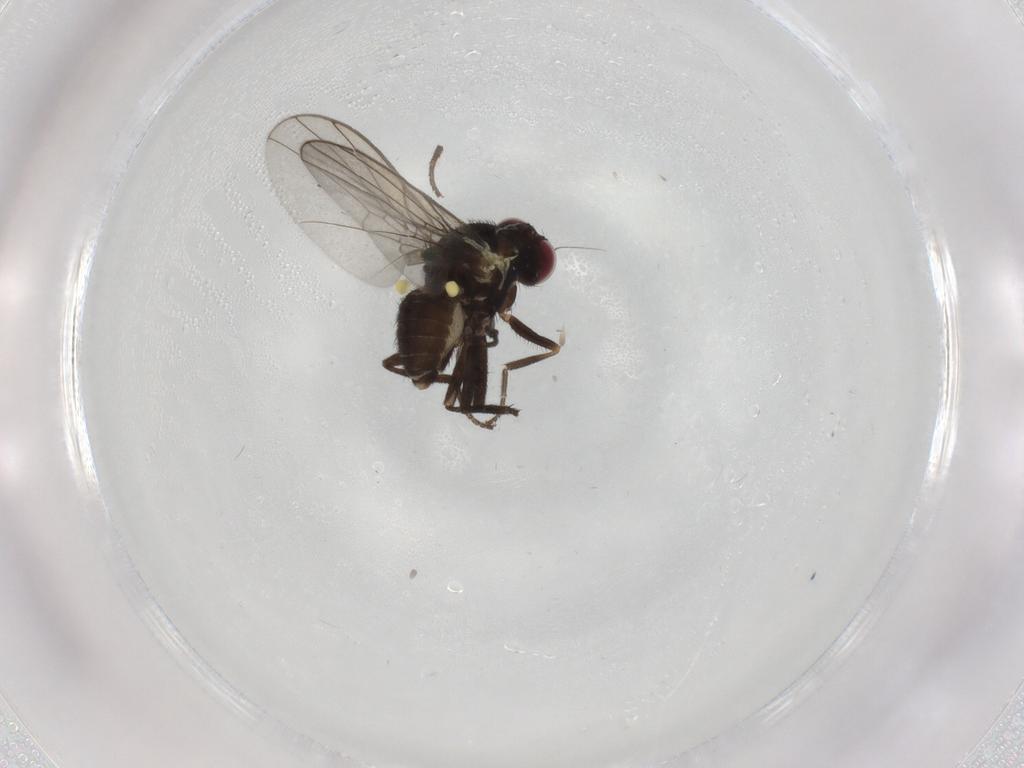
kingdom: Animalia
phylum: Arthropoda
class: Insecta
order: Diptera
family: Agromyzidae
